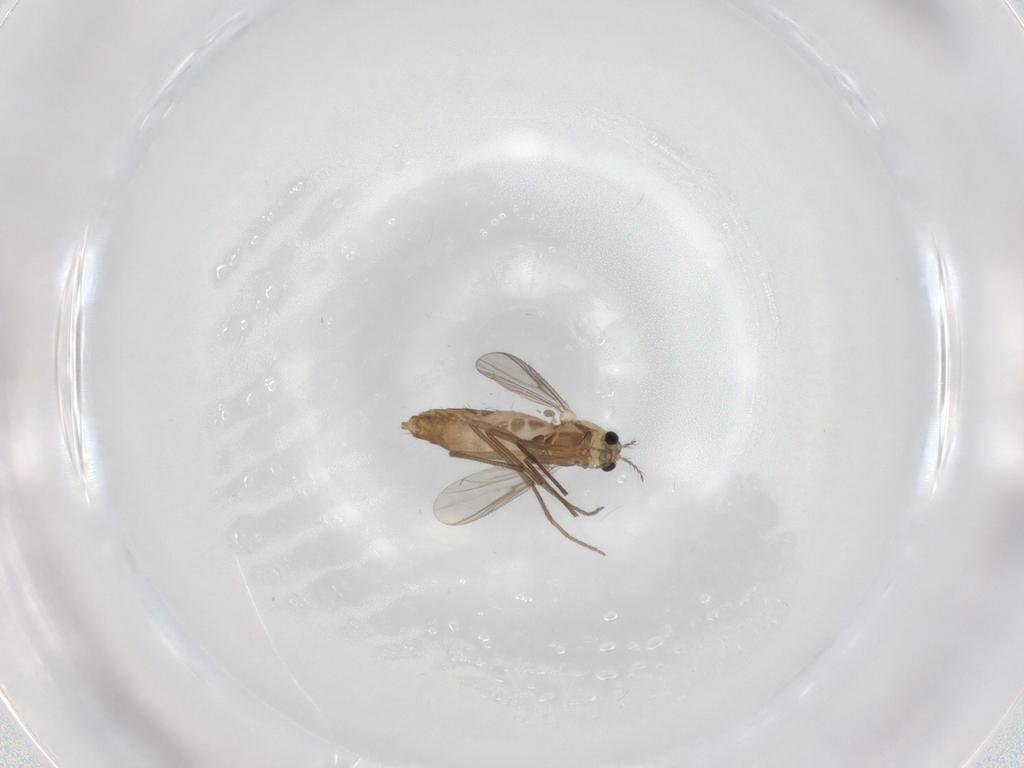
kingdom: Animalia
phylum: Arthropoda
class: Insecta
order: Diptera
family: Chironomidae
